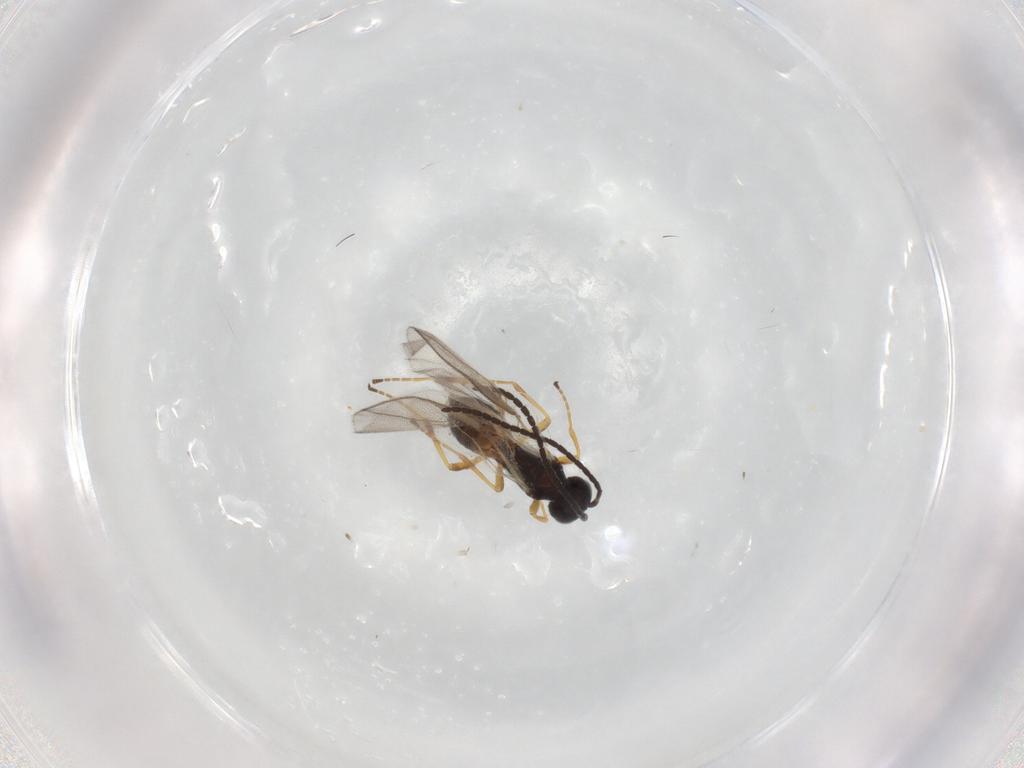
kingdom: Animalia
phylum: Arthropoda
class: Insecta
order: Hymenoptera
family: Braconidae
